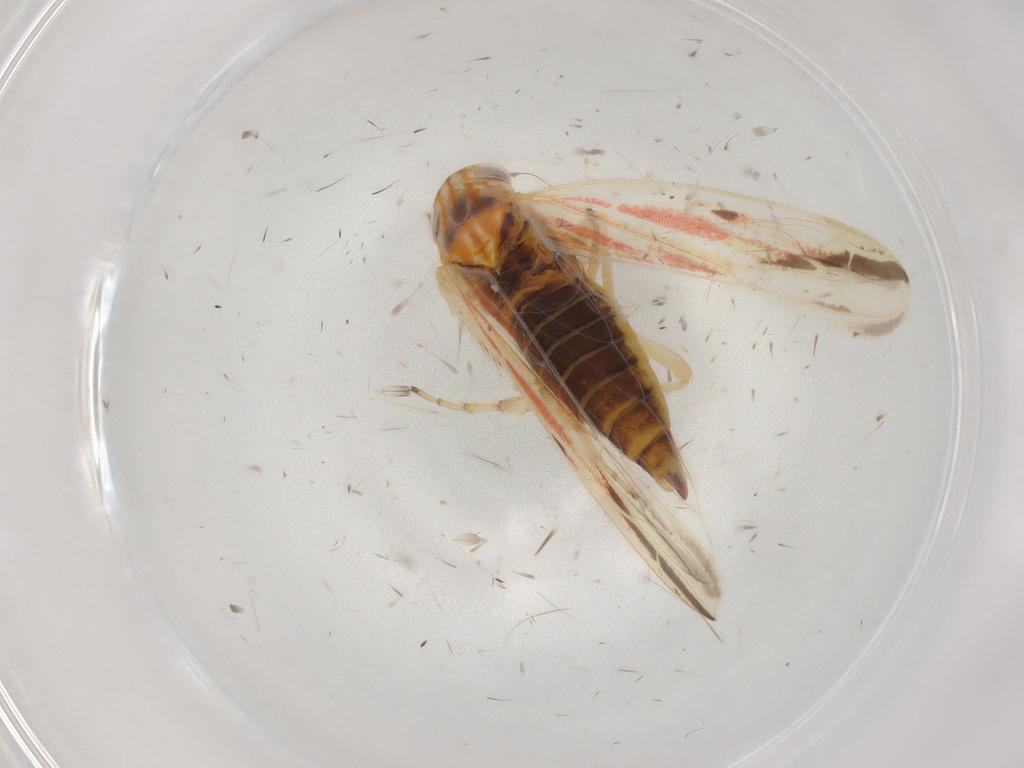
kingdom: Animalia
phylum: Arthropoda
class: Insecta
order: Hemiptera
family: Cicadellidae
